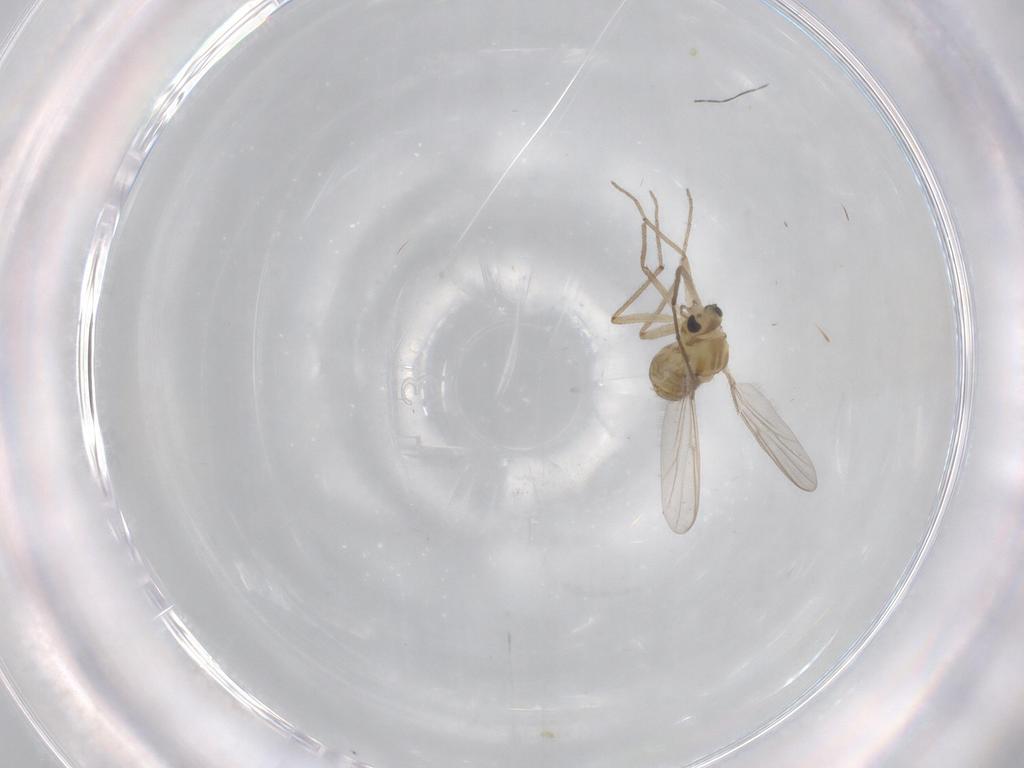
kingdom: Animalia
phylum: Arthropoda
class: Insecta
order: Diptera
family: Chironomidae
